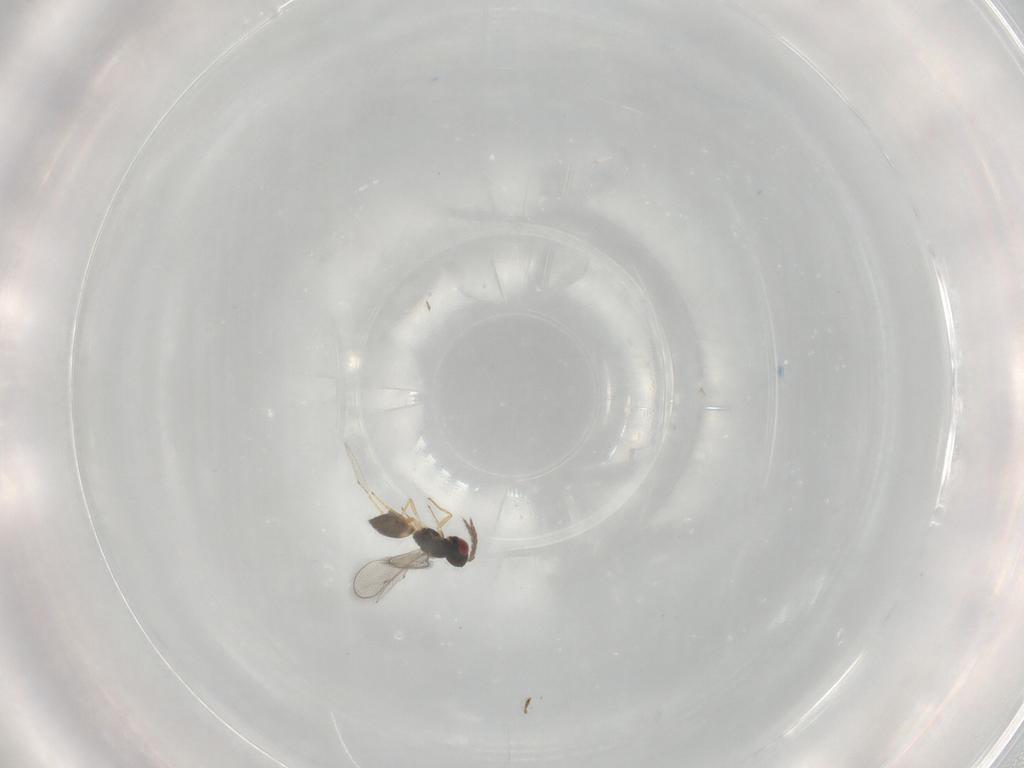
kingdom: Animalia
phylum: Arthropoda
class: Insecta
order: Hymenoptera
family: Diapriidae
